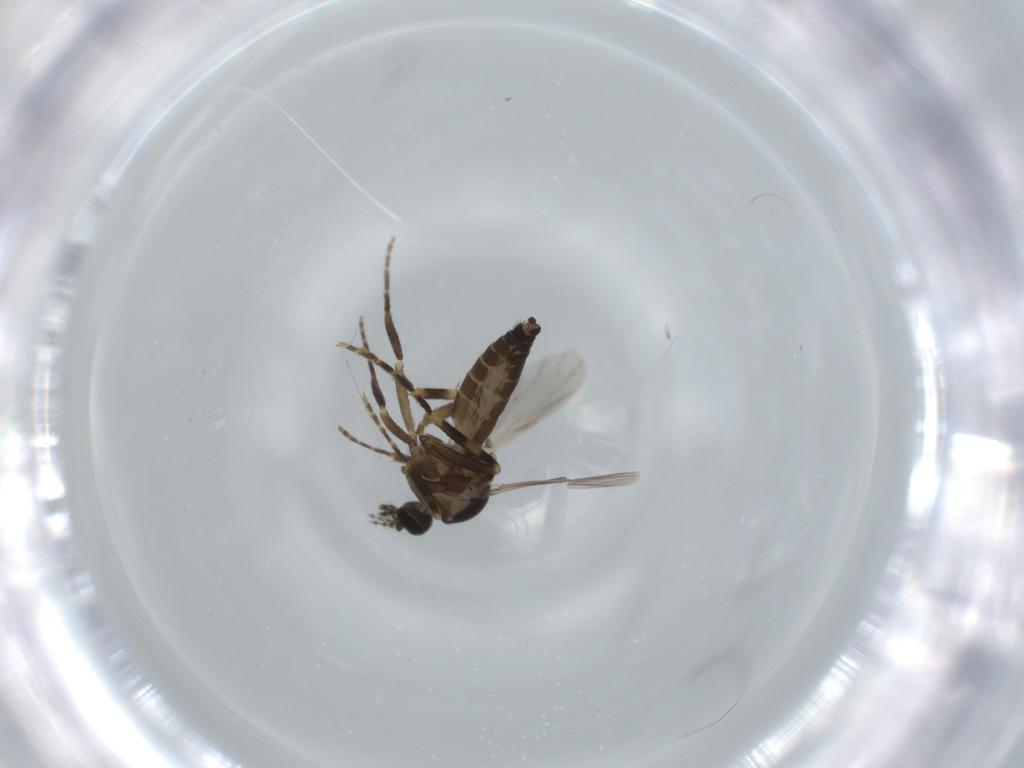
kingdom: Animalia
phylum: Arthropoda
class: Insecta
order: Diptera
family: Ceratopogonidae
